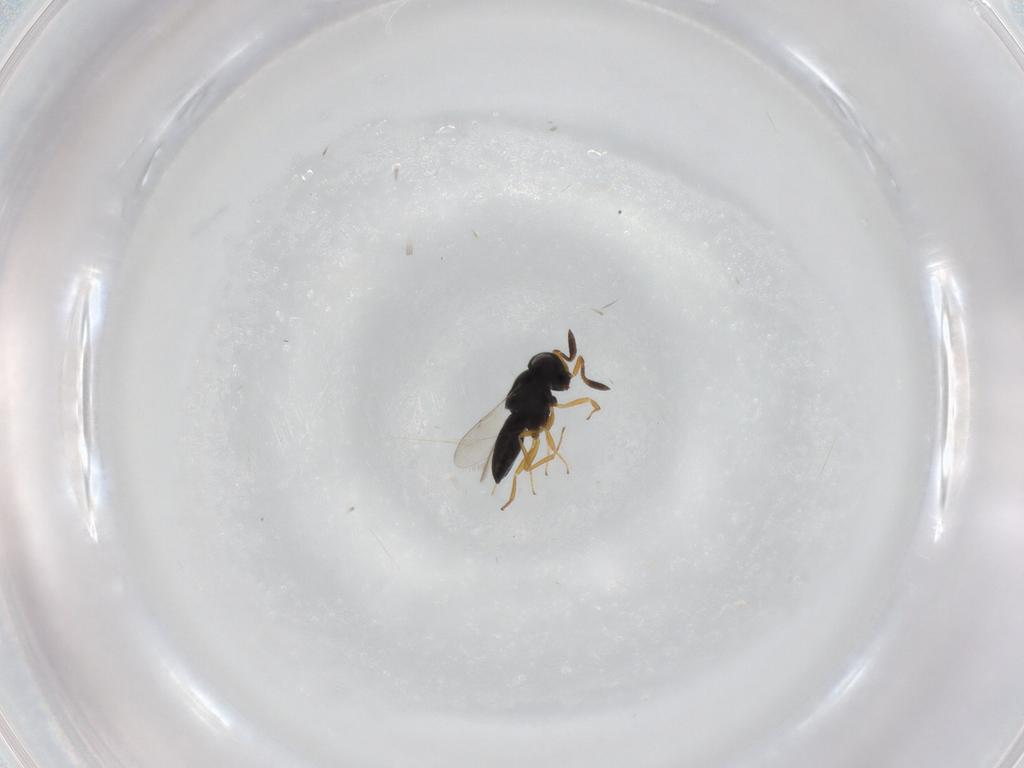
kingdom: Animalia
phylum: Arthropoda
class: Insecta
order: Hymenoptera
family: Scelionidae
